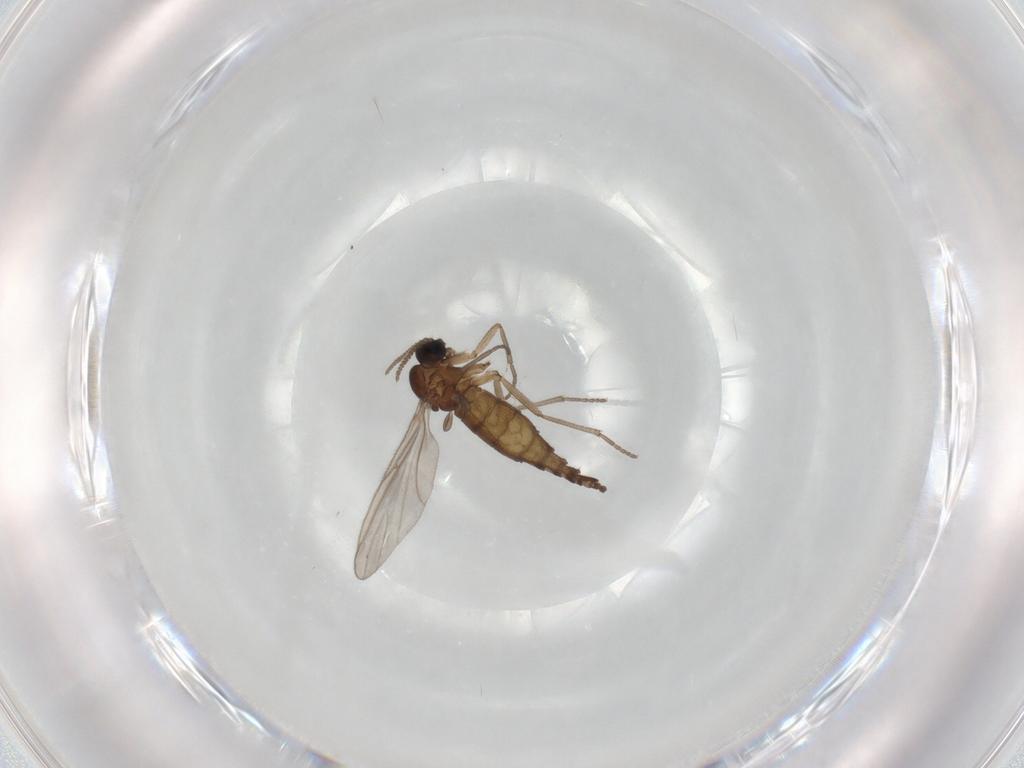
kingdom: Animalia
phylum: Arthropoda
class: Insecta
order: Diptera
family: Sciaridae
